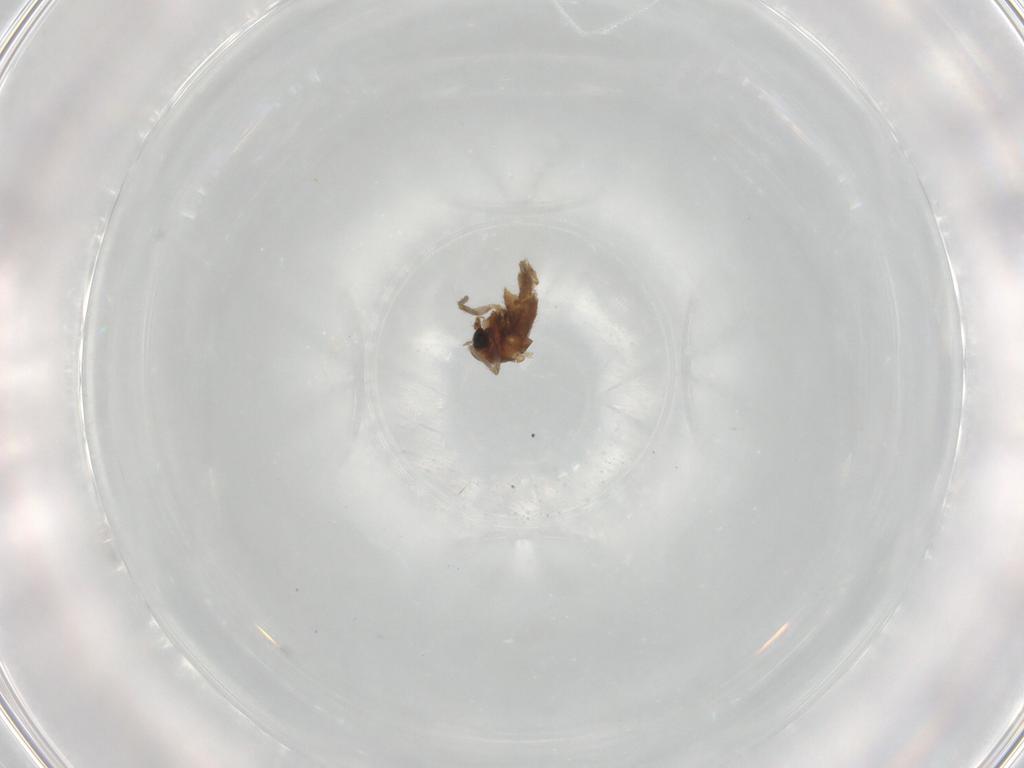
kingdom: Animalia
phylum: Arthropoda
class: Insecta
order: Diptera
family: Chironomidae
